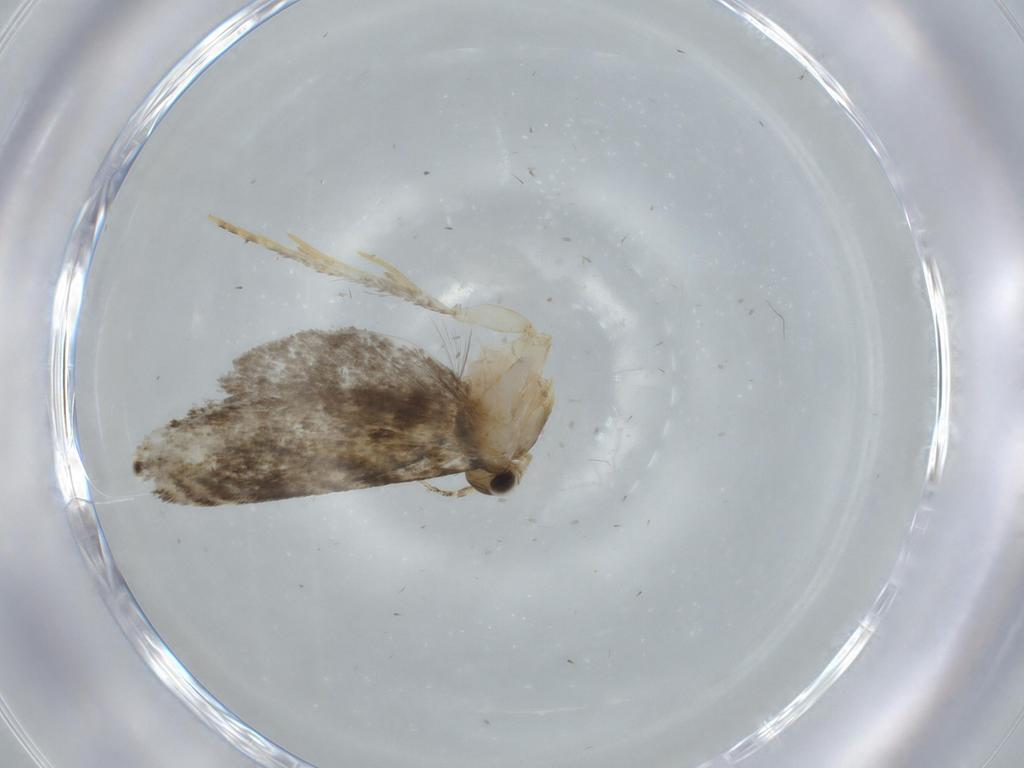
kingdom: Animalia
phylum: Arthropoda
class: Insecta
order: Lepidoptera
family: Tineidae
